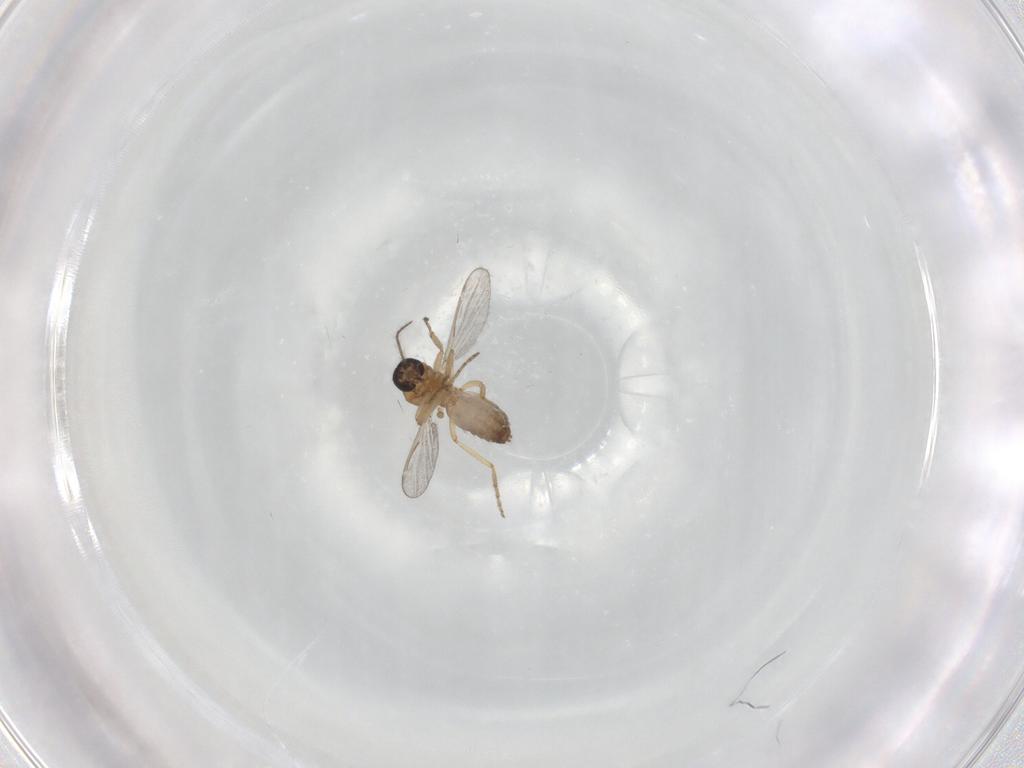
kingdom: Animalia
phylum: Arthropoda
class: Insecta
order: Diptera
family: Ceratopogonidae
